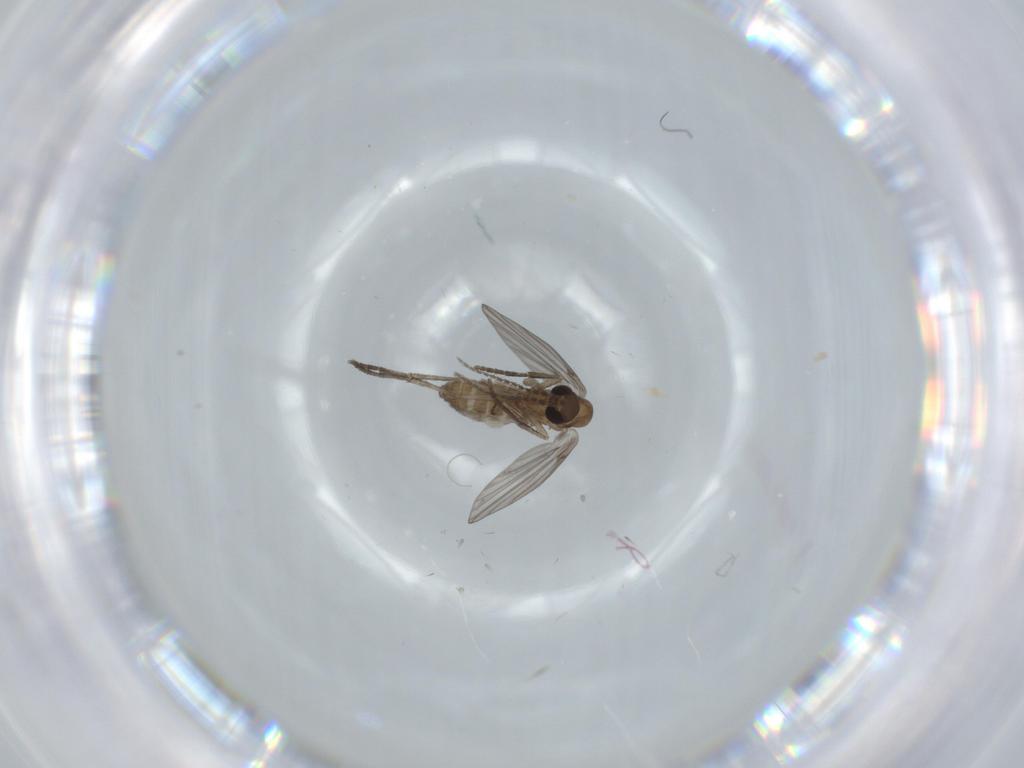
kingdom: Animalia
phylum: Arthropoda
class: Insecta
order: Diptera
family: Psychodidae
